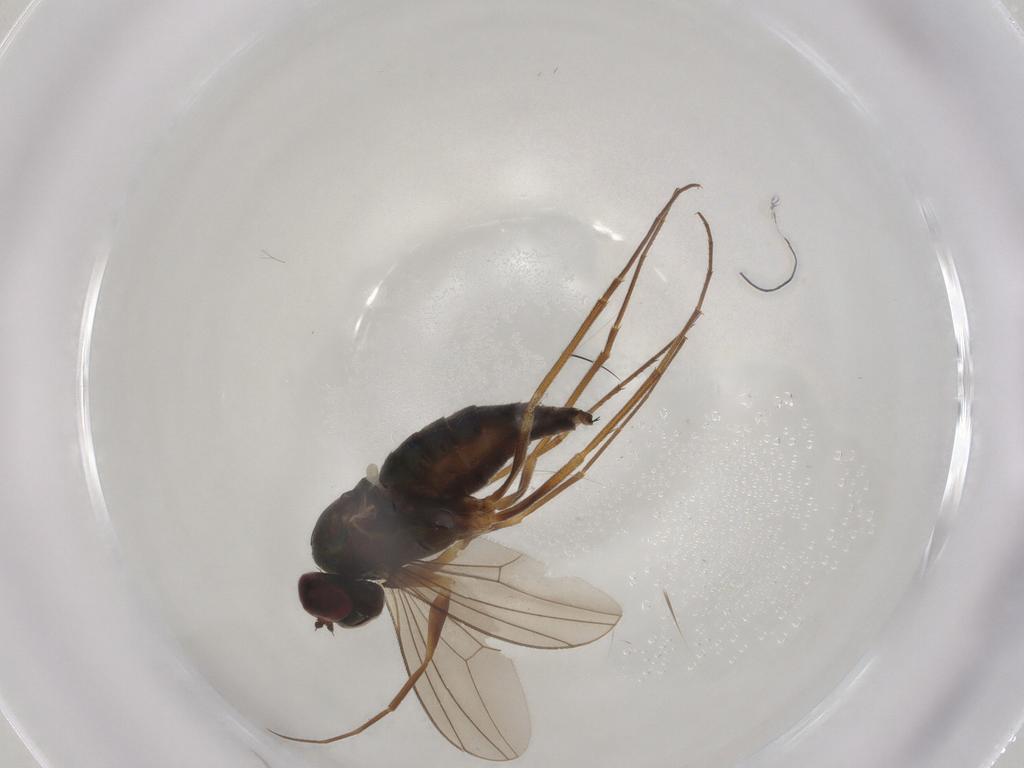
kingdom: Animalia
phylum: Arthropoda
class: Insecta
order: Diptera
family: Dolichopodidae
